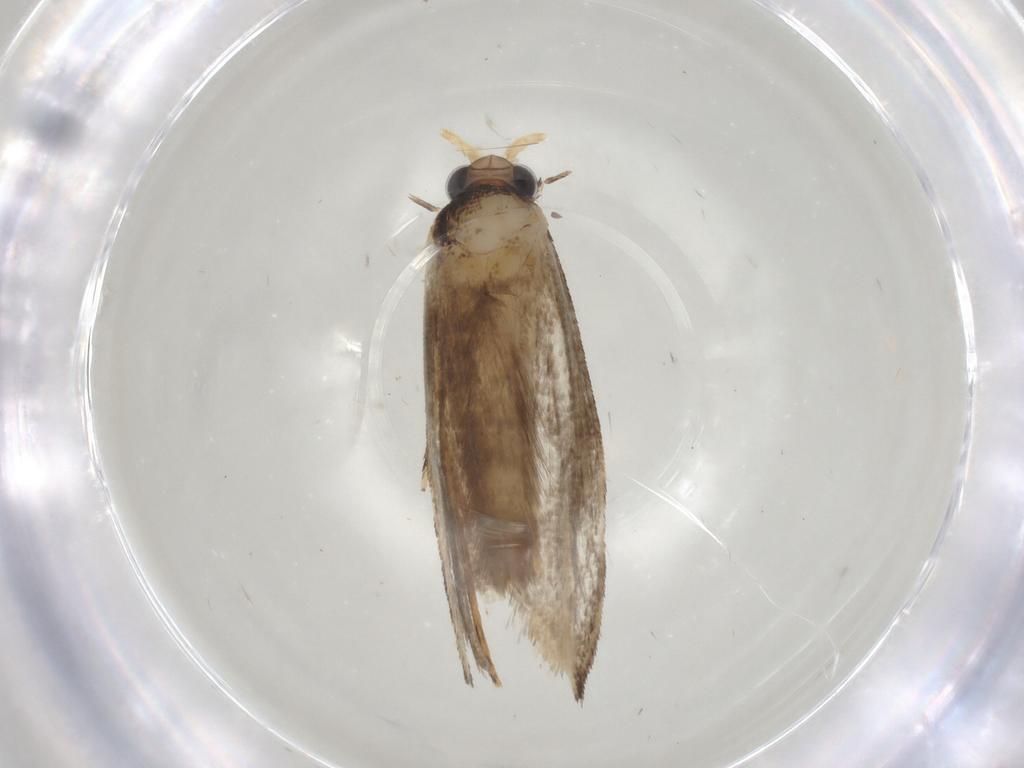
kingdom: Animalia
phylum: Arthropoda
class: Insecta
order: Lepidoptera
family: Tineidae
